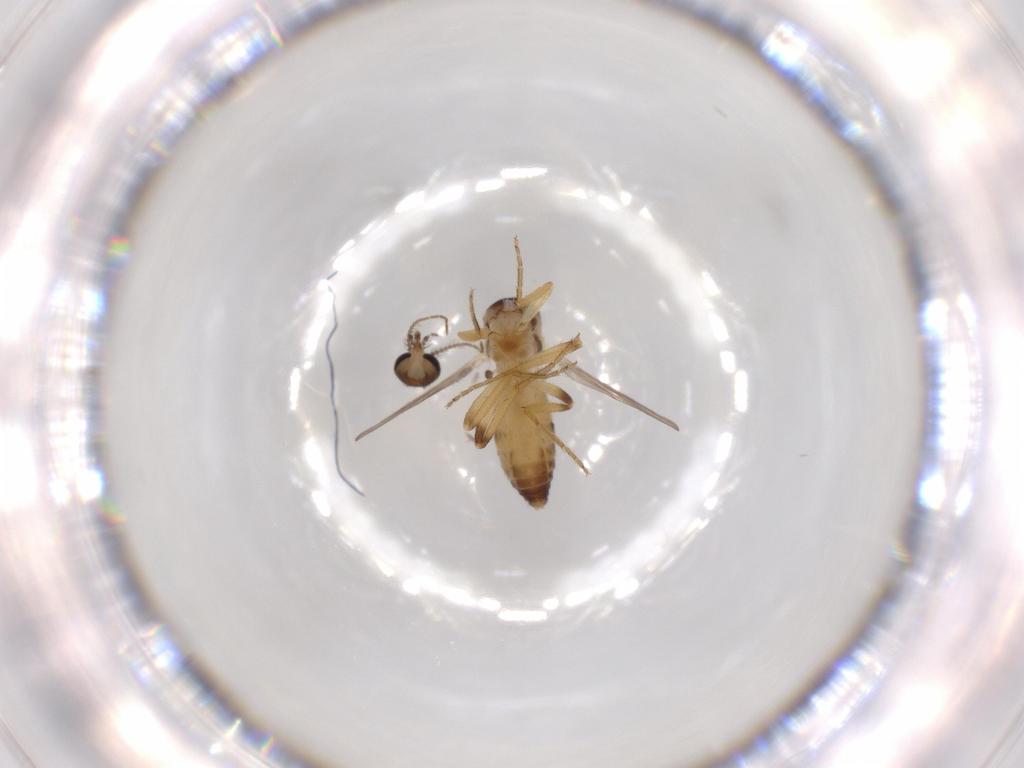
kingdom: Animalia
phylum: Arthropoda
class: Insecta
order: Diptera
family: Ceratopogonidae
